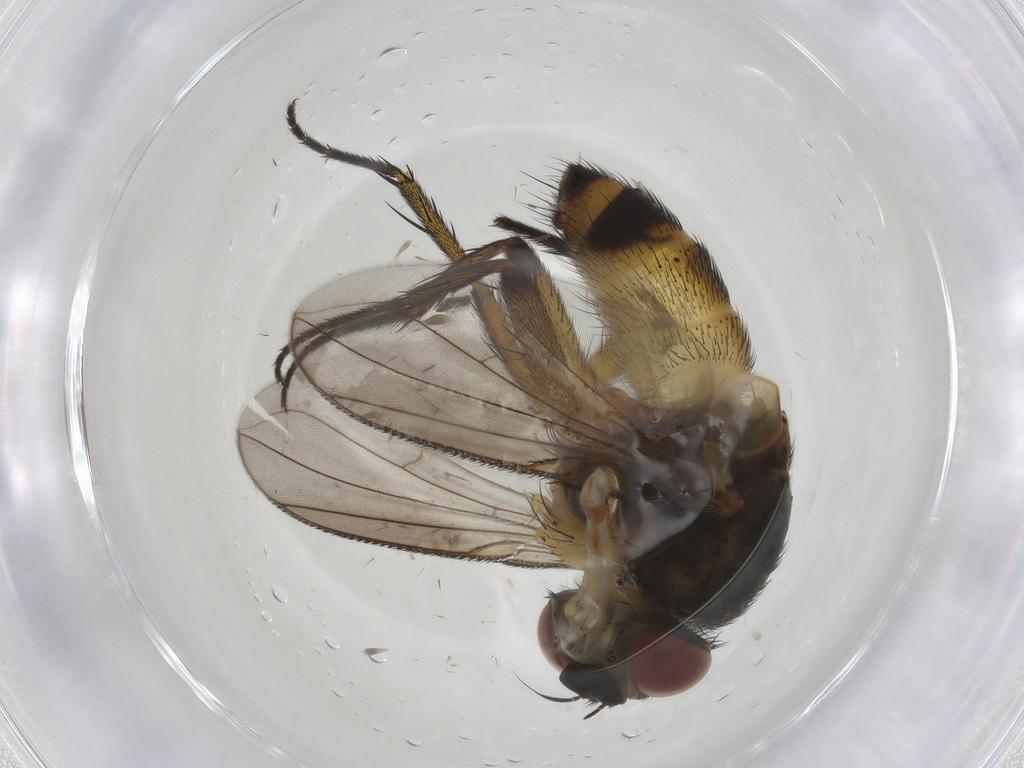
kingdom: Animalia
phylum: Arthropoda
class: Insecta
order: Diptera
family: Tachinidae
